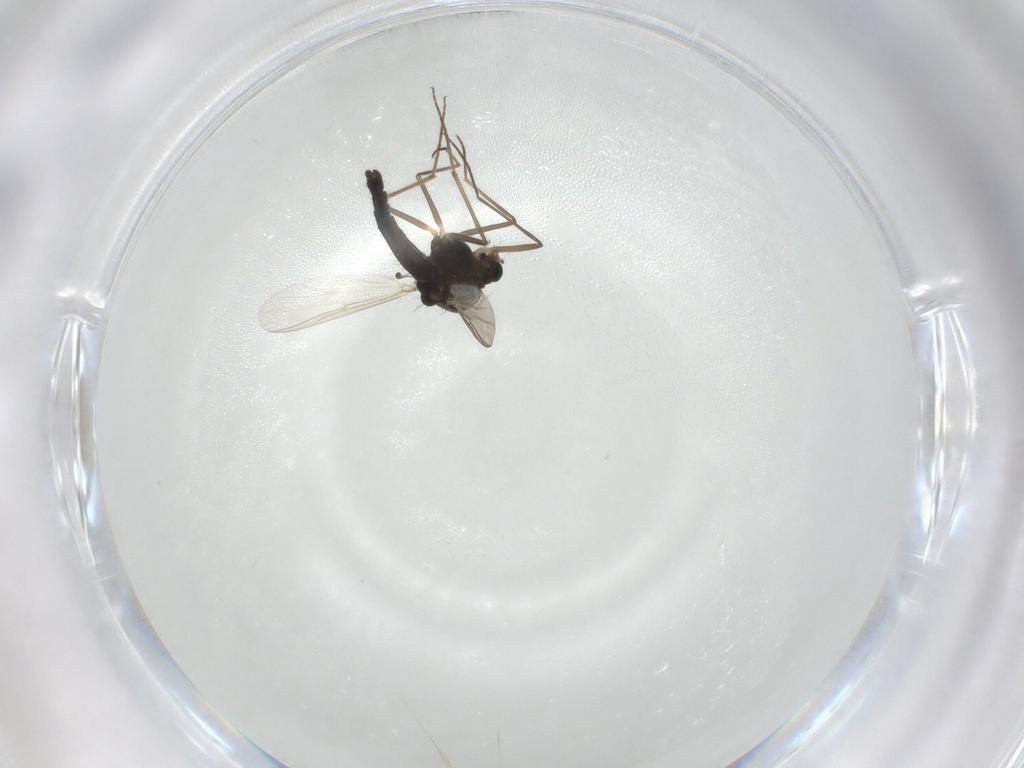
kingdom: Animalia
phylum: Arthropoda
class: Insecta
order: Diptera
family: Chironomidae
